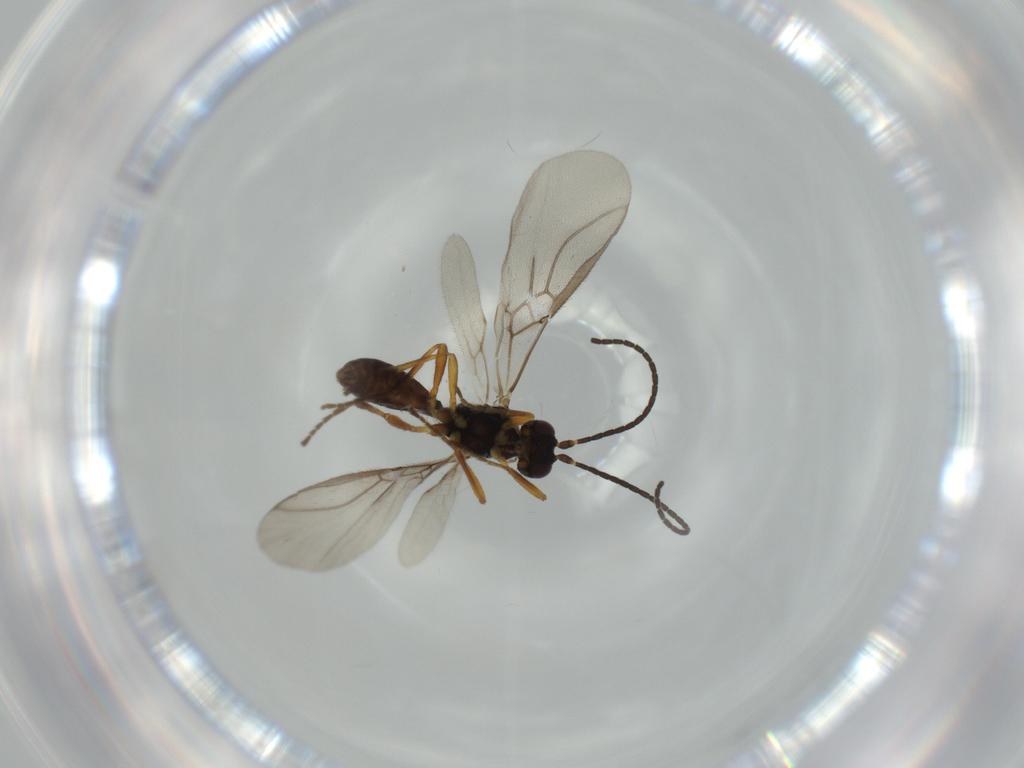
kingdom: Animalia
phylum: Arthropoda
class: Insecta
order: Hymenoptera
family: Braconidae
